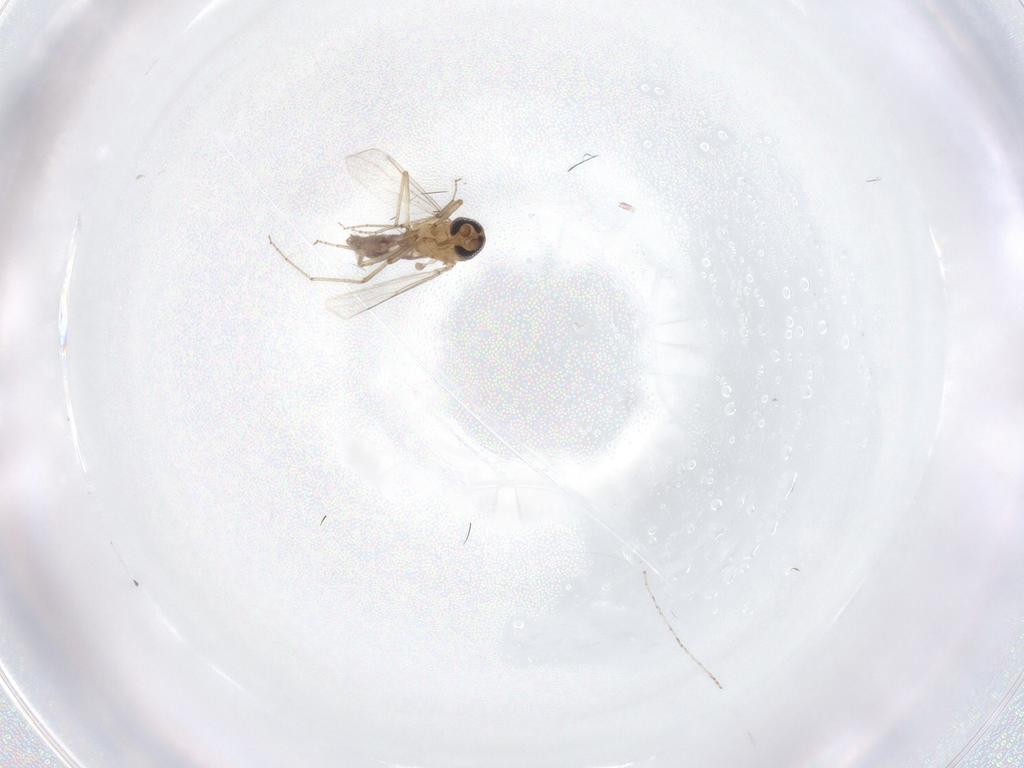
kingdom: Animalia
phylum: Arthropoda
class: Insecta
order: Diptera
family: Ceratopogonidae
